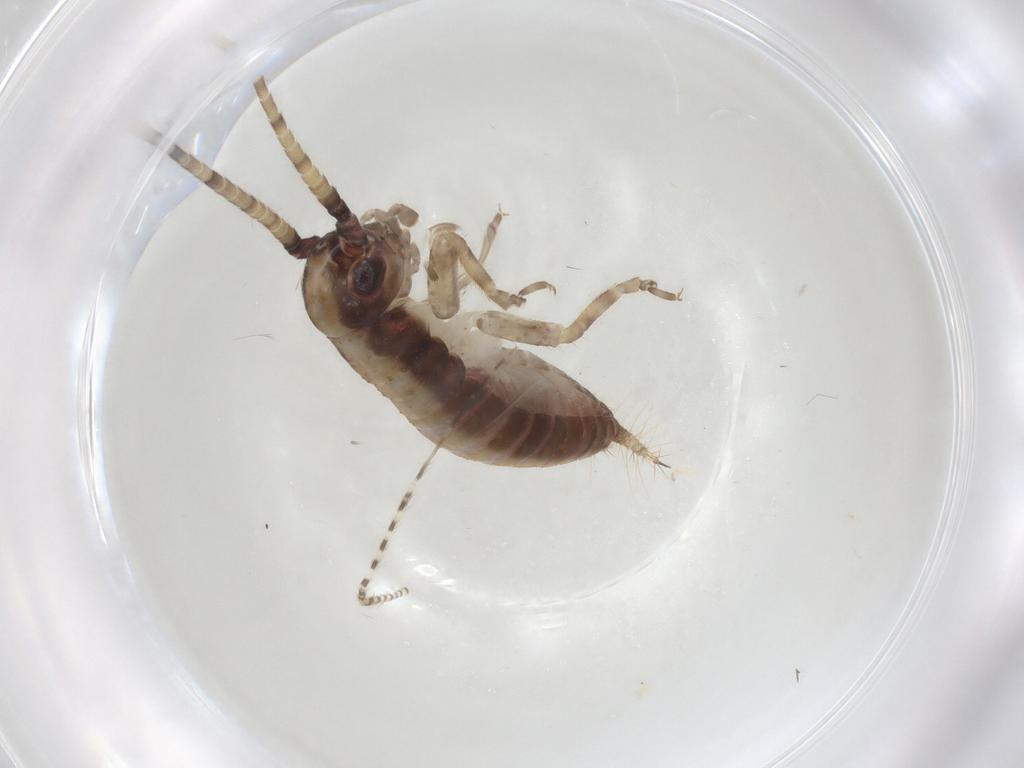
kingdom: Animalia
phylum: Arthropoda
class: Insecta
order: Orthoptera
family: Gryllidae
